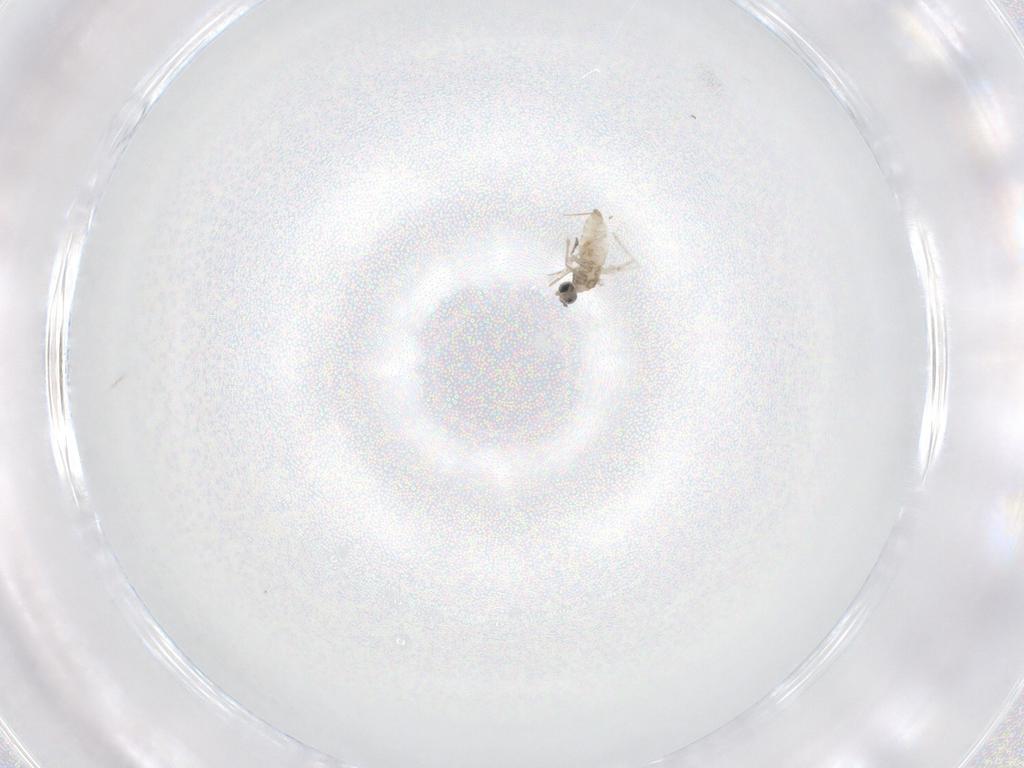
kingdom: Animalia
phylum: Arthropoda
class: Insecta
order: Diptera
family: Cecidomyiidae
